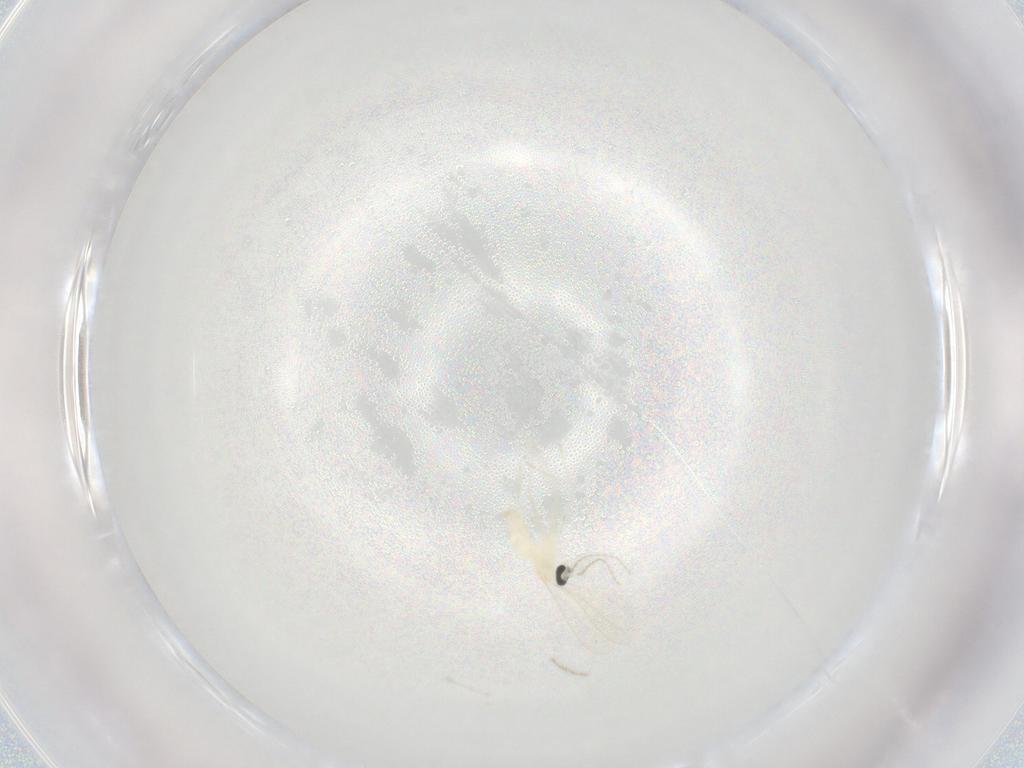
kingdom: Animalia
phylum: Arthropoda
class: Insecta
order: Diptera
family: Cecidomyiidae
